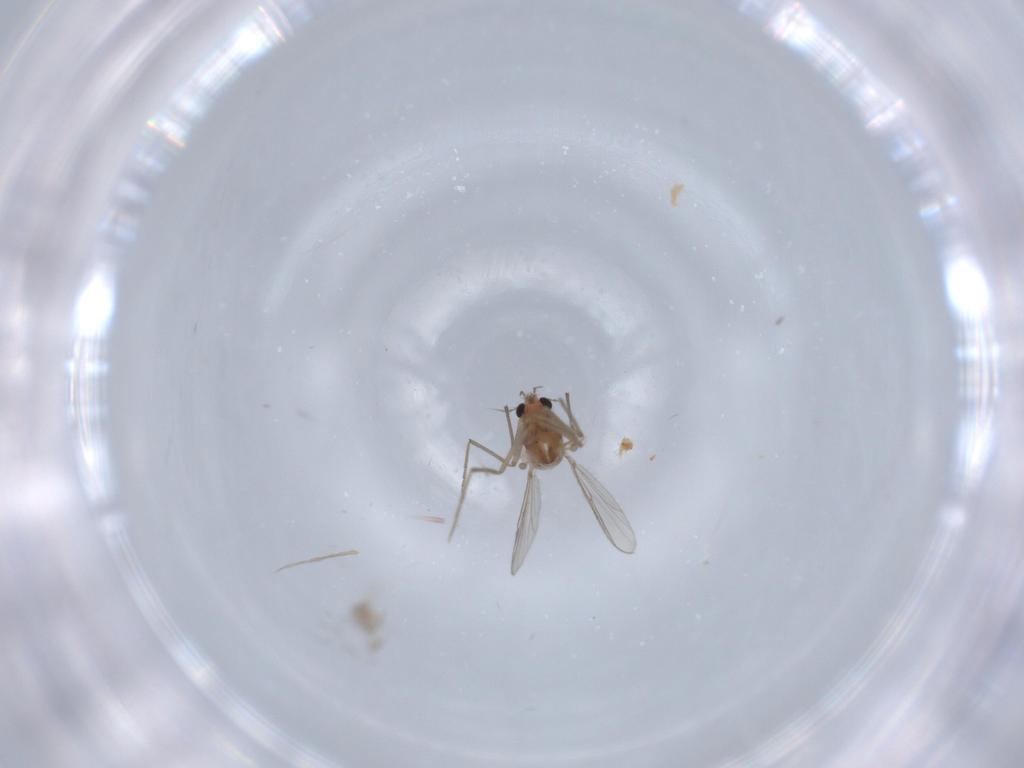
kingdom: Animalia
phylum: Arthropoda
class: Insecta
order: Diptera
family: Chironomidae
